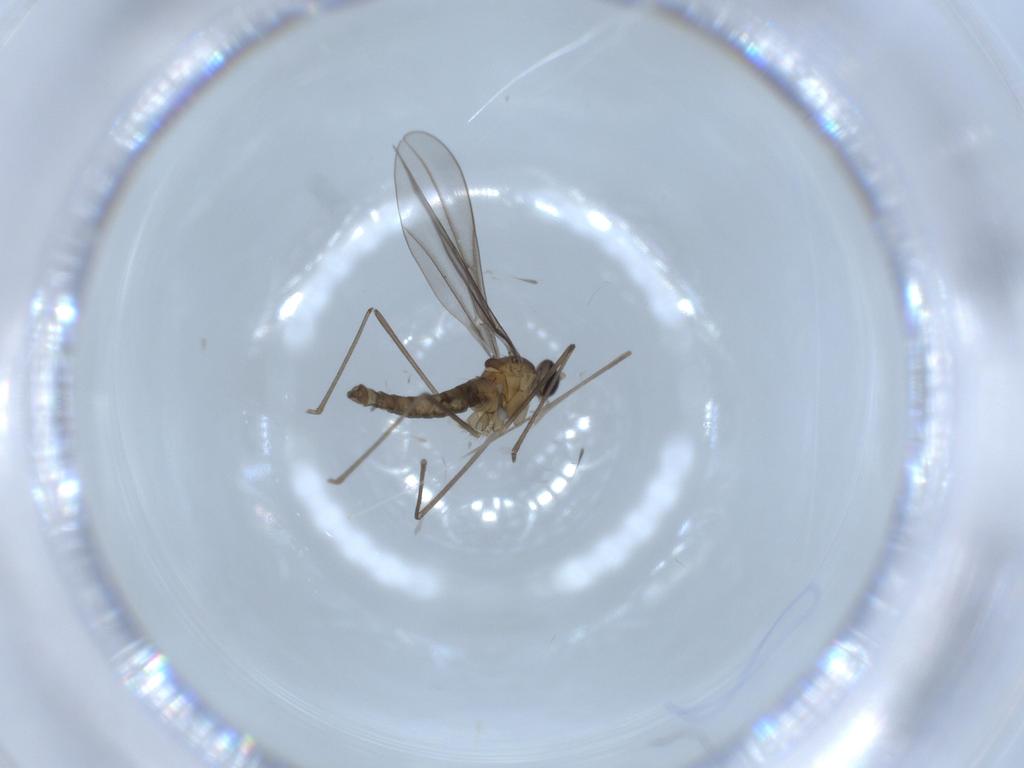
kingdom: Animalia
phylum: Arthropoda
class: Insecta
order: Diptera
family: Cecidomyiidae
